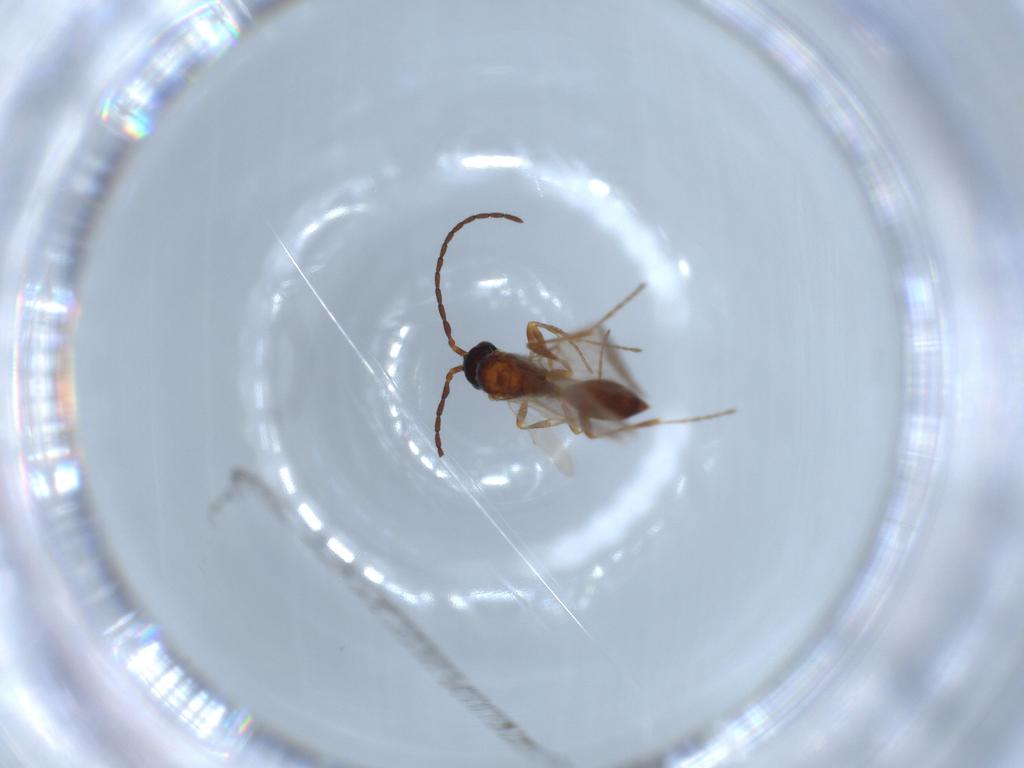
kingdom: Animalia
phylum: Arthropoda
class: Insecta
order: Hymenoptera
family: Diapriidae
